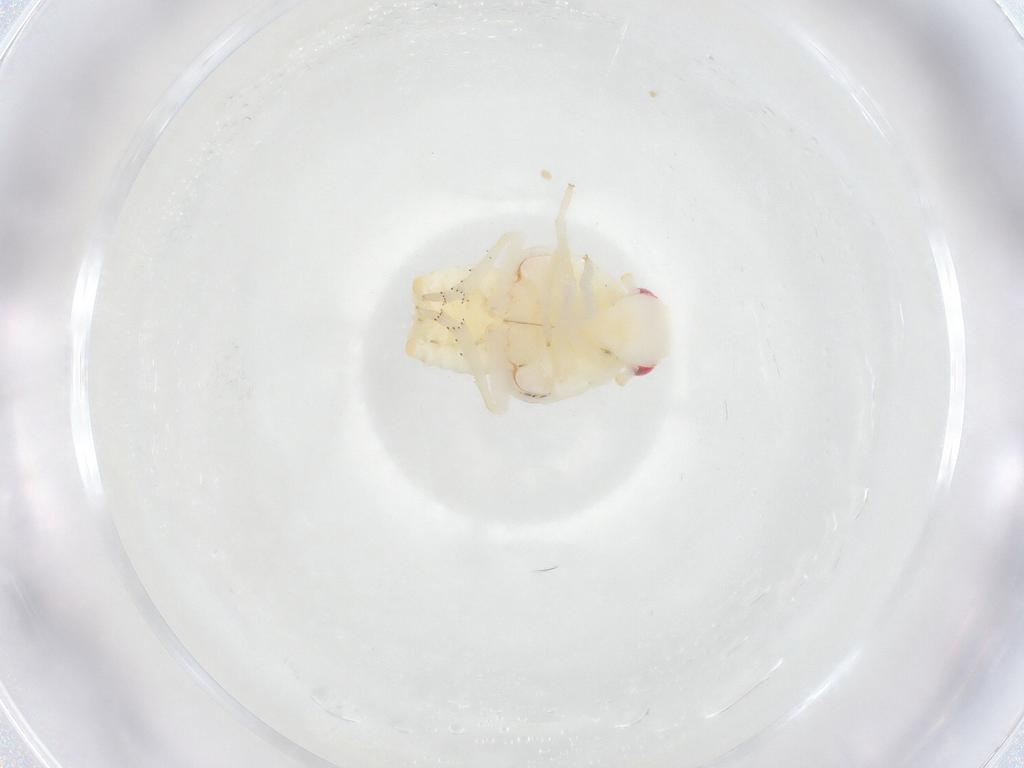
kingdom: Animalia
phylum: Arthropoda
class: Insecta
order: Hemiptera
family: Flatidae
